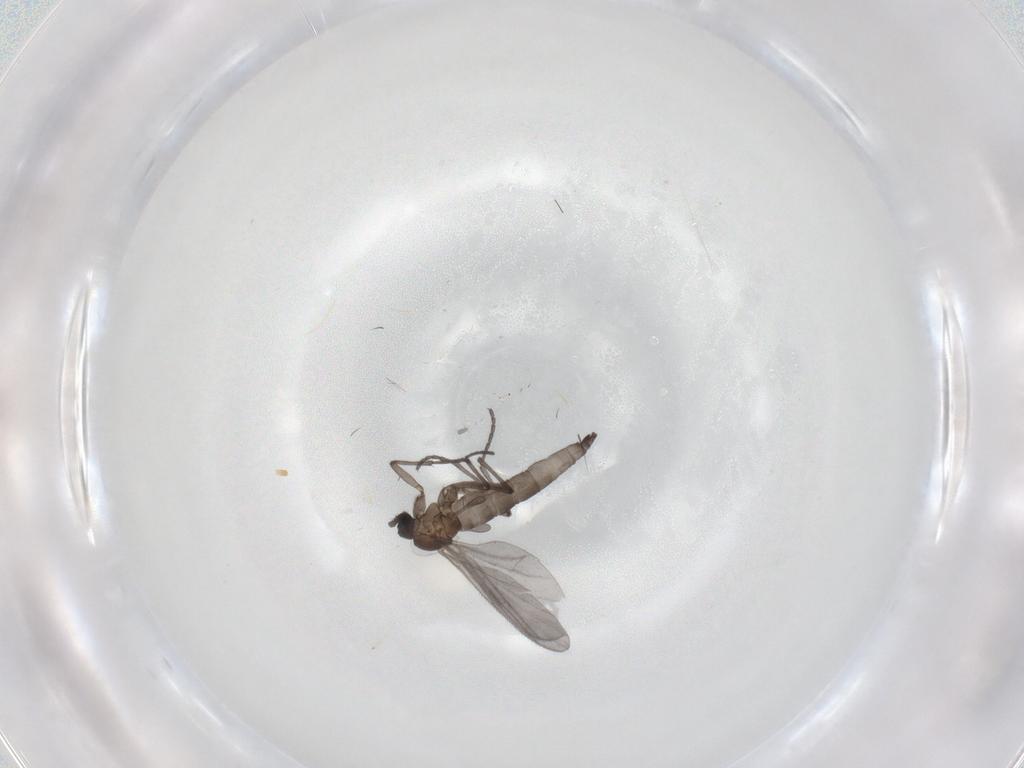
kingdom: Animalia
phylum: Arthropoda
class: Insecta
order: Diptera
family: Sciaridae
